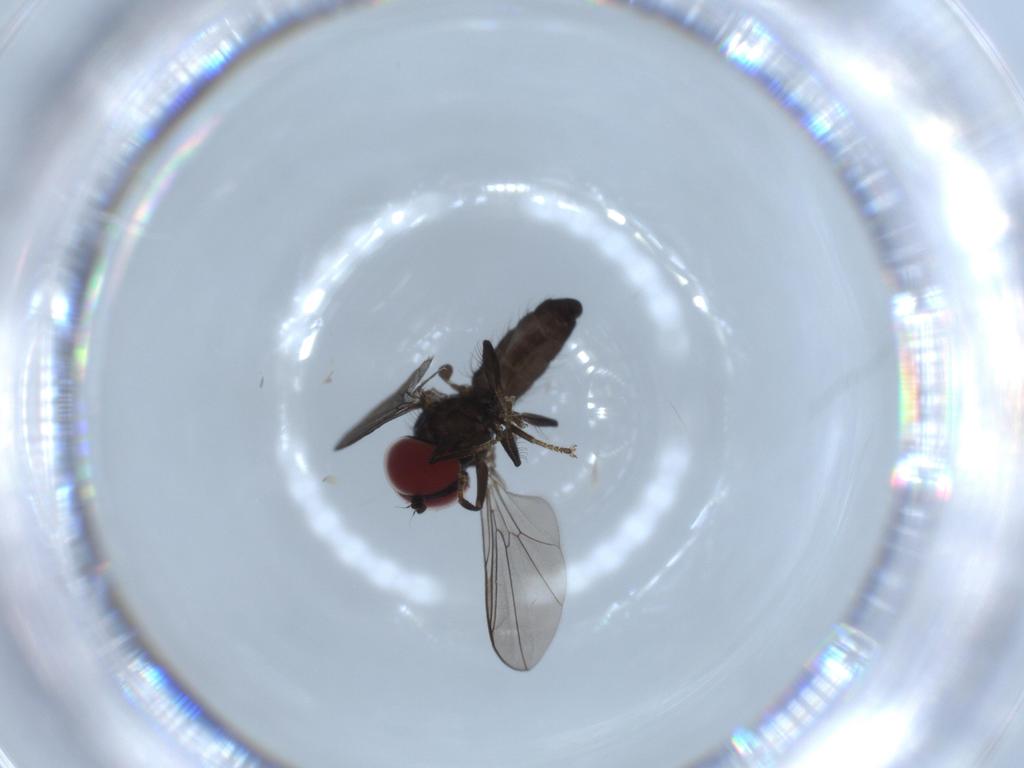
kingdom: Animalia
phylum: Arthropoda
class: Insecta
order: Diptera
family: Pipunculidae
